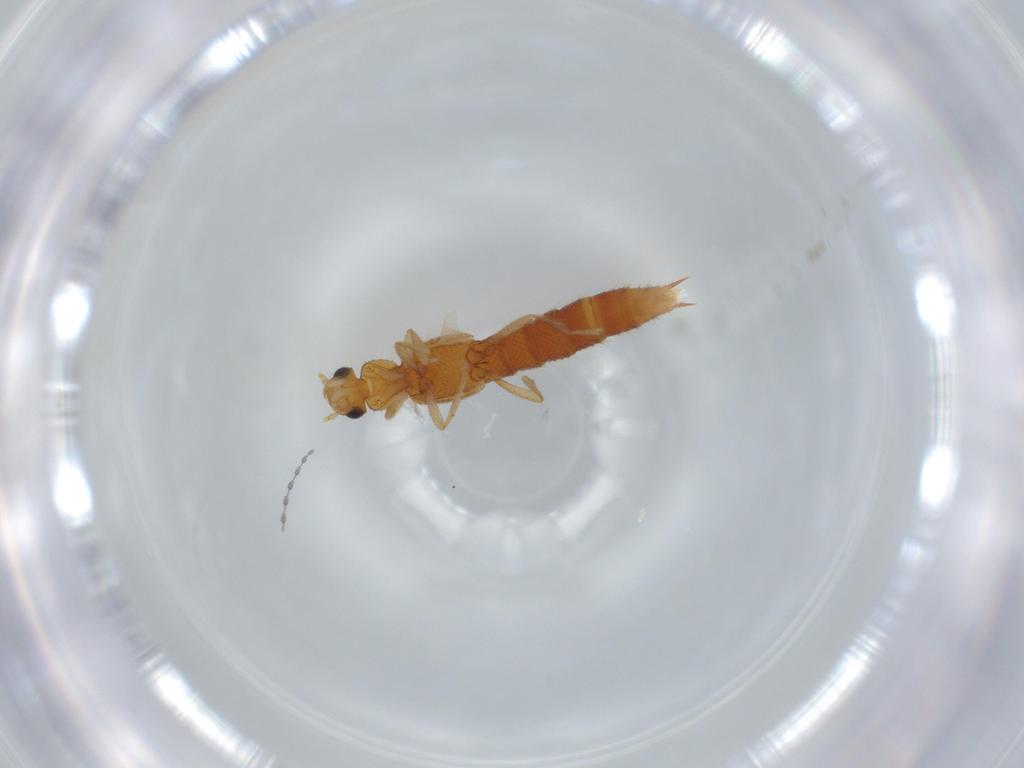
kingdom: Animalia
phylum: Arthropoda
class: Insecta
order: Coleoptera
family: Staphylinidae
